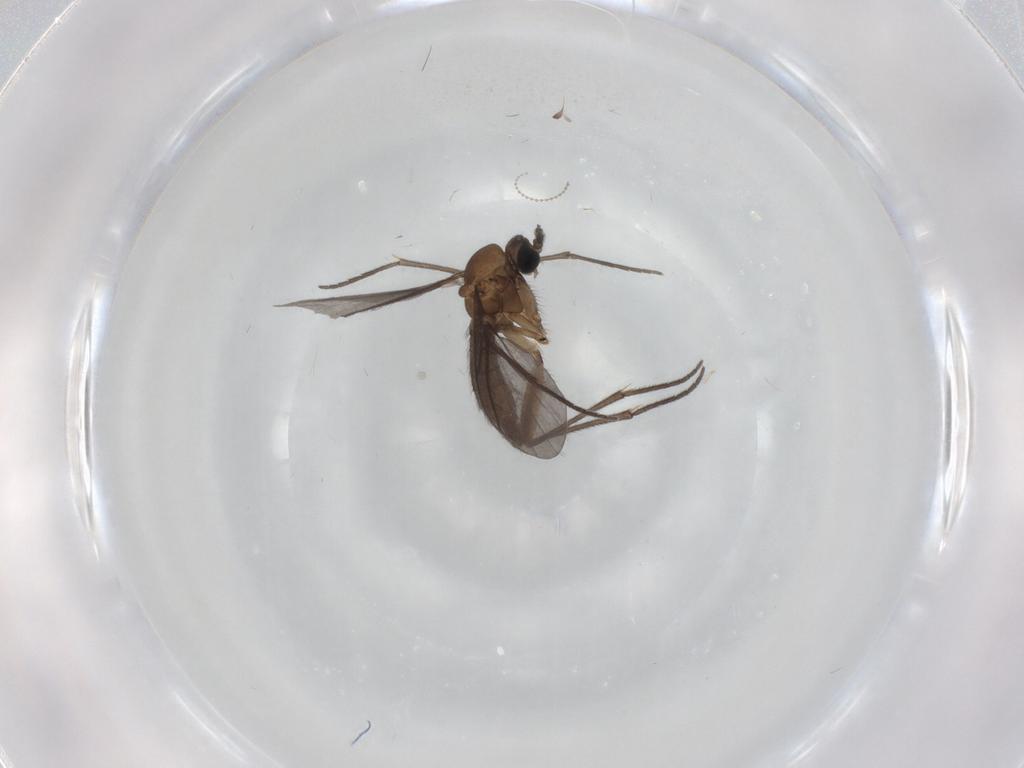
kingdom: Animalia
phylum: Arthropoda
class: Insecta
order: Diptera
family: Sciaridae
